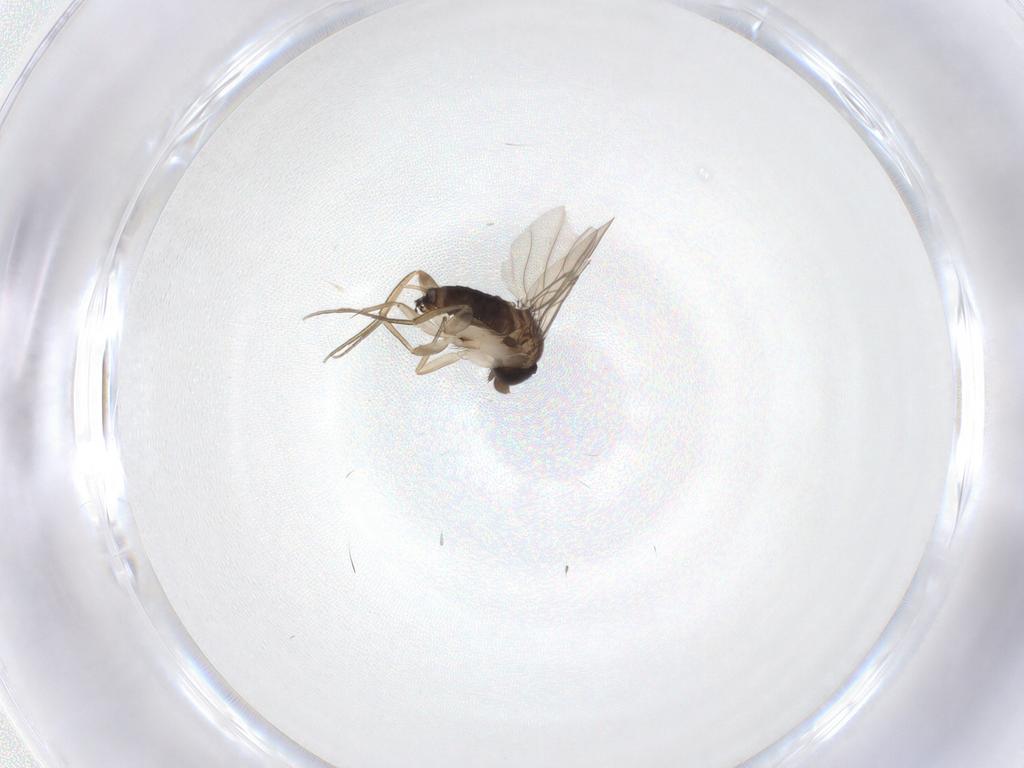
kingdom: Animalia
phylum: Arthropoda
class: Insecta
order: Diptera
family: Phoridae
